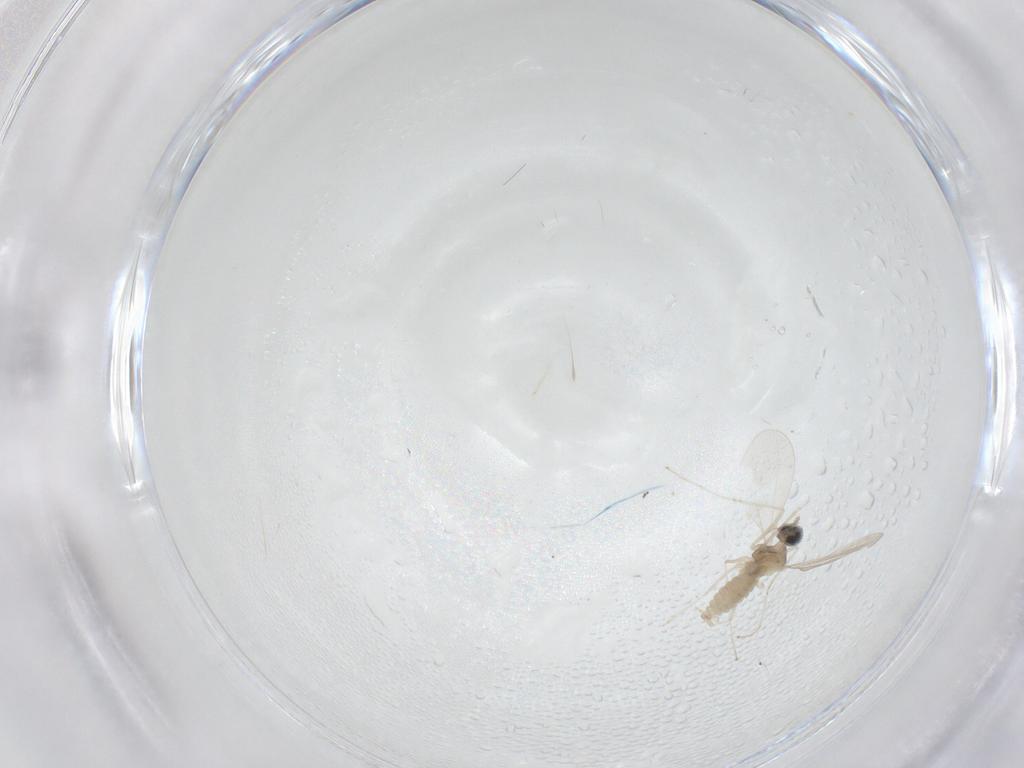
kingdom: Animalia
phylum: Arthropoda
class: Insecta
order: Diptera
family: Cecidomyiidae
